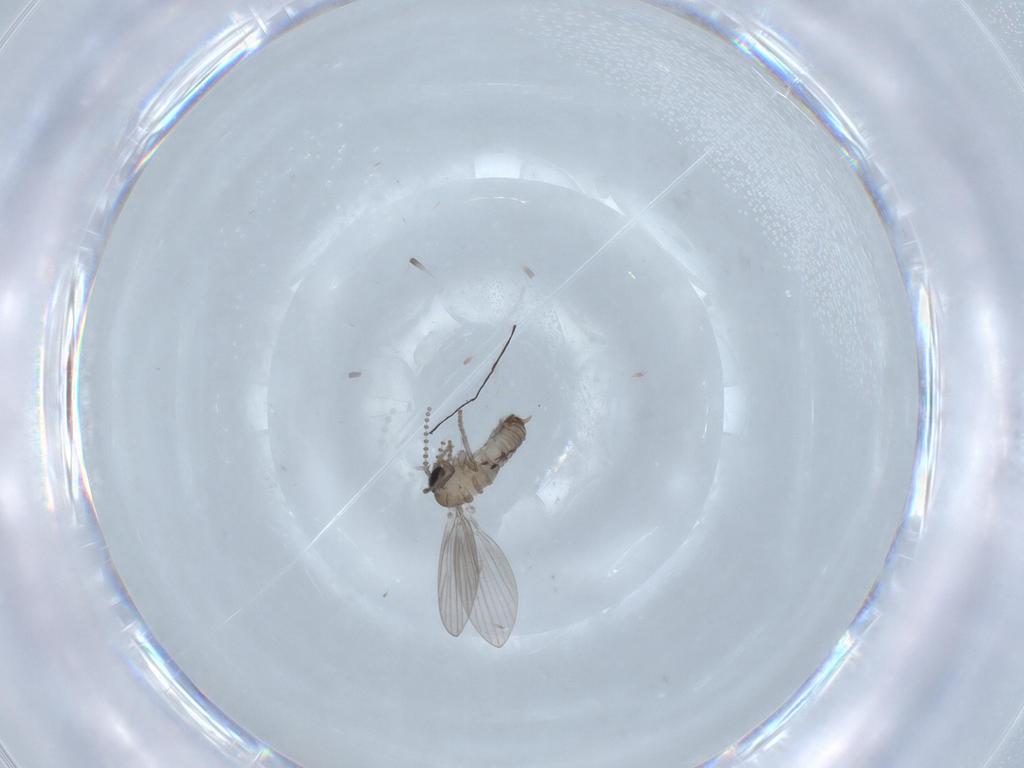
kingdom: Animalia
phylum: Arthropoda
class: Insecta
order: Diptera
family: Psychodidae
